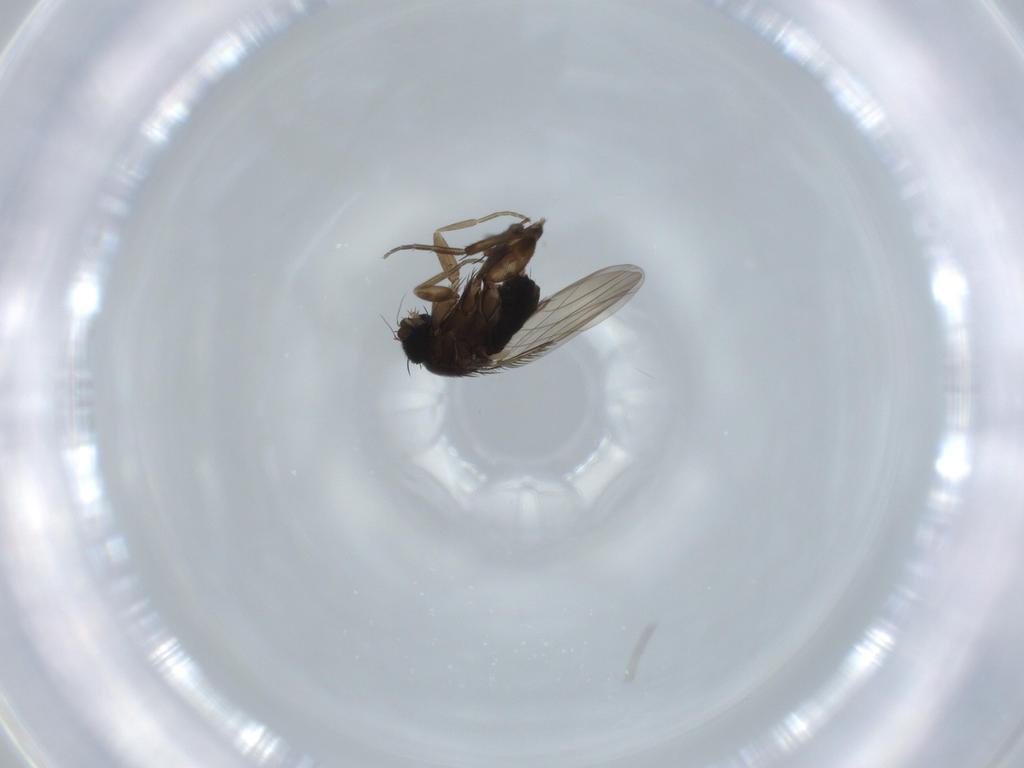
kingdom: Animalia
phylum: Arthropoda
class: Insecta
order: Diptera
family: Phoridae
